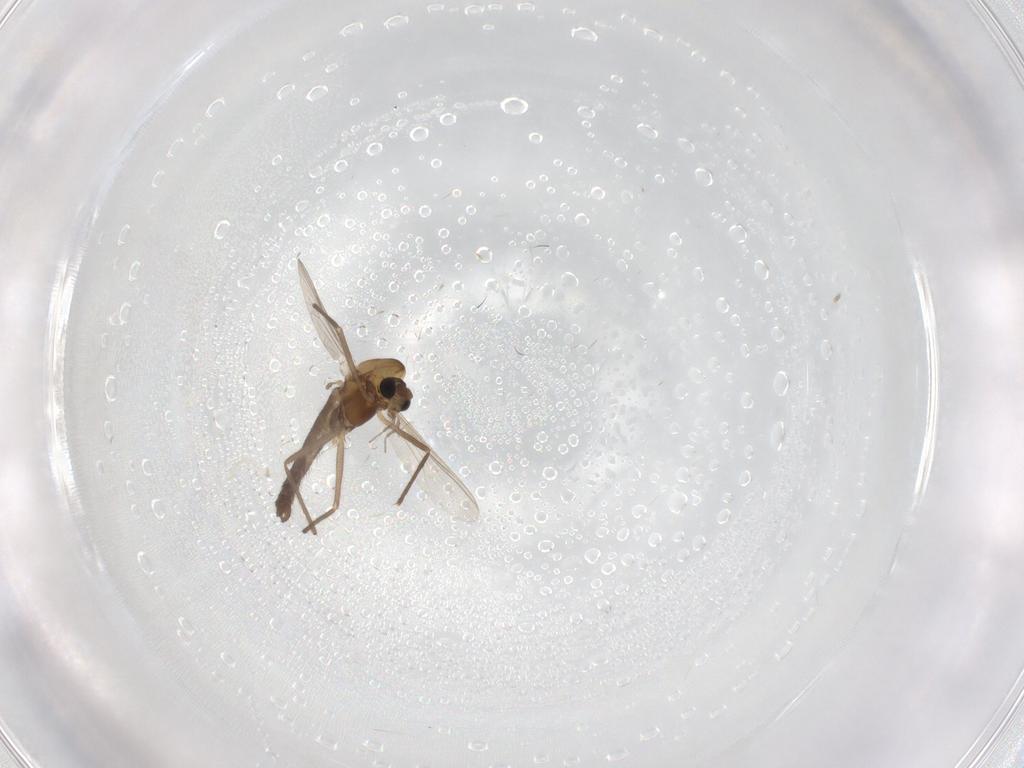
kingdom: Animalia
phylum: Arthropoda
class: Insecta
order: Diptera
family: Chironomidae
